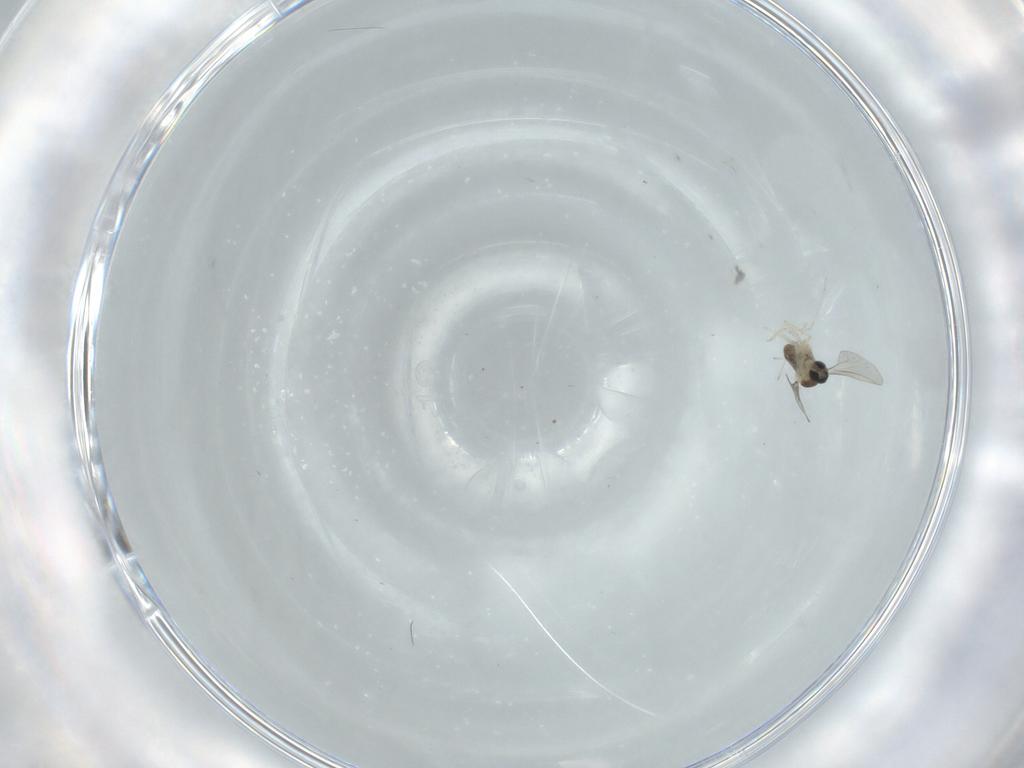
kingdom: Animalia
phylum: Arthropoda
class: Insecta
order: Diptera
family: Cecidomyiidae
